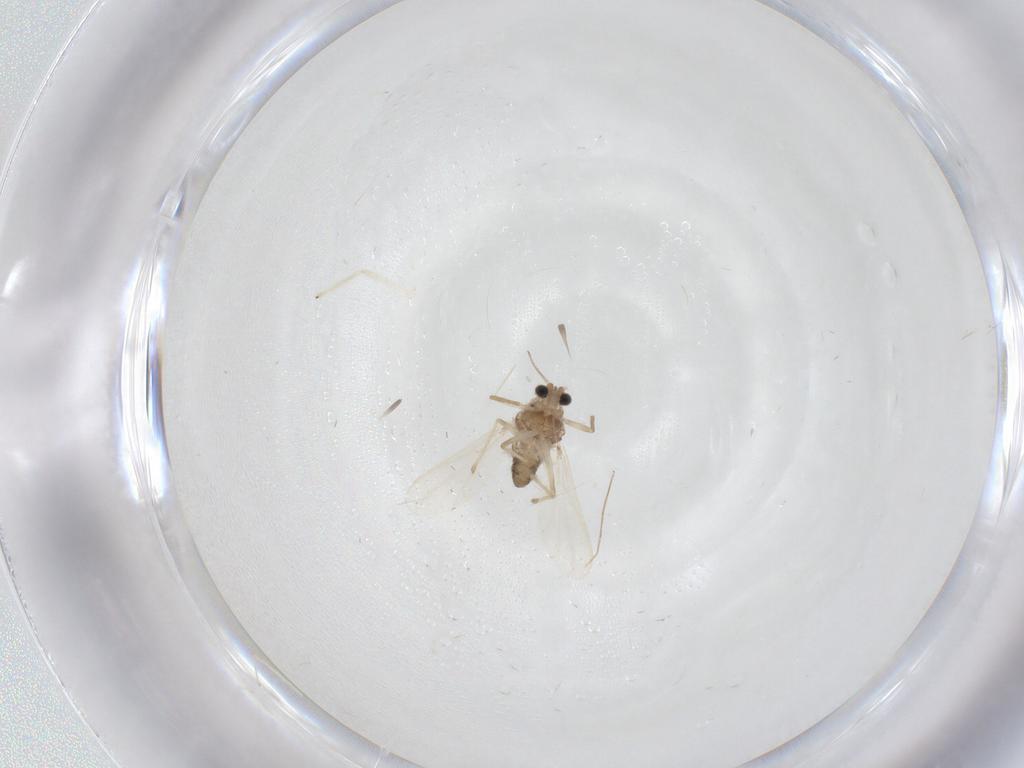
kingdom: Animalia
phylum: Arthropoda
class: Insecta
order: Diptera
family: Chironomidae
